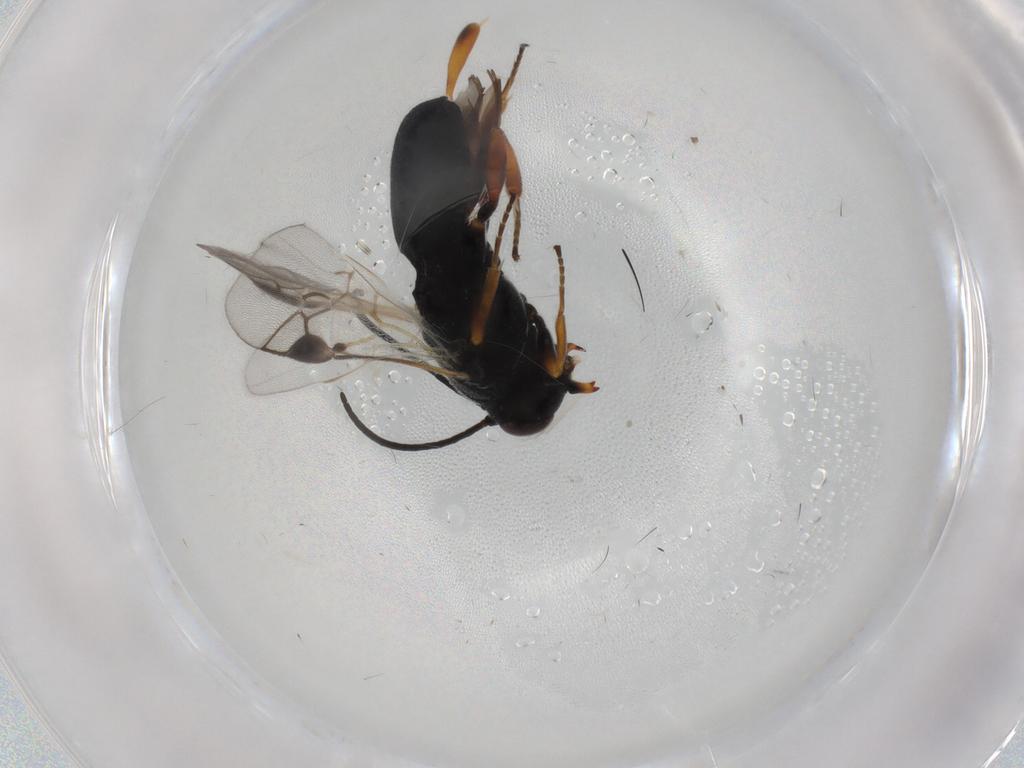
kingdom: Animalia
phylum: Arthropoda
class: Insecta
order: Hymenoptera
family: Braconidae
